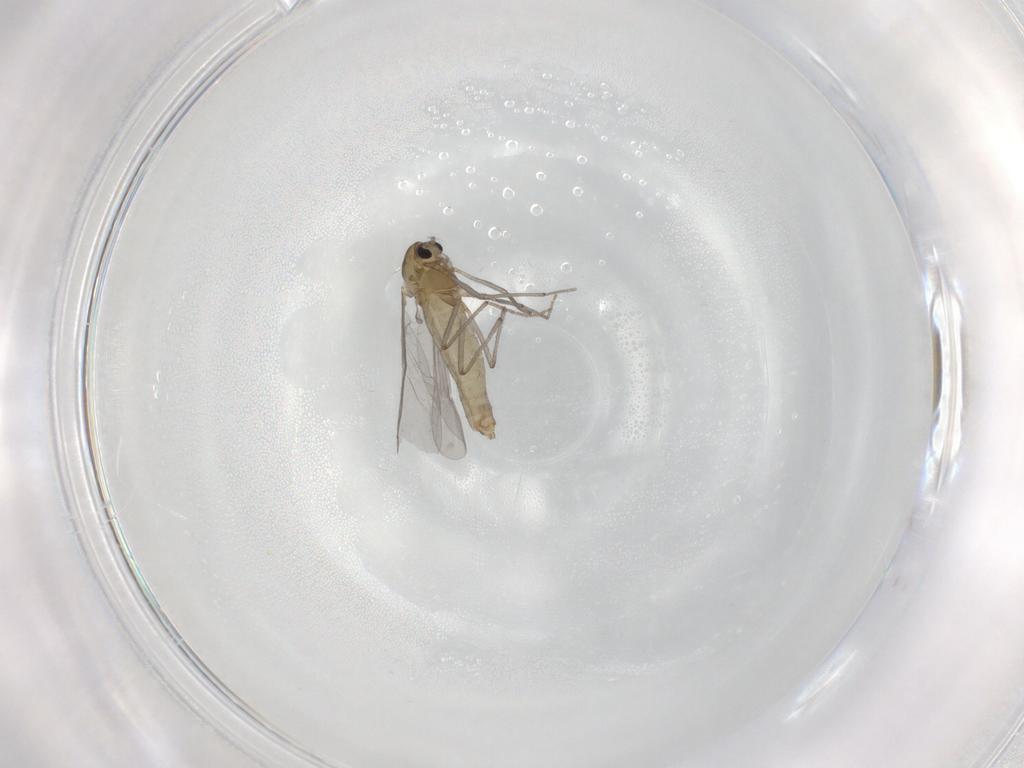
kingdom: Animalia
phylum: Arthropoda
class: Insecta
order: Diptera
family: Chironomidae
